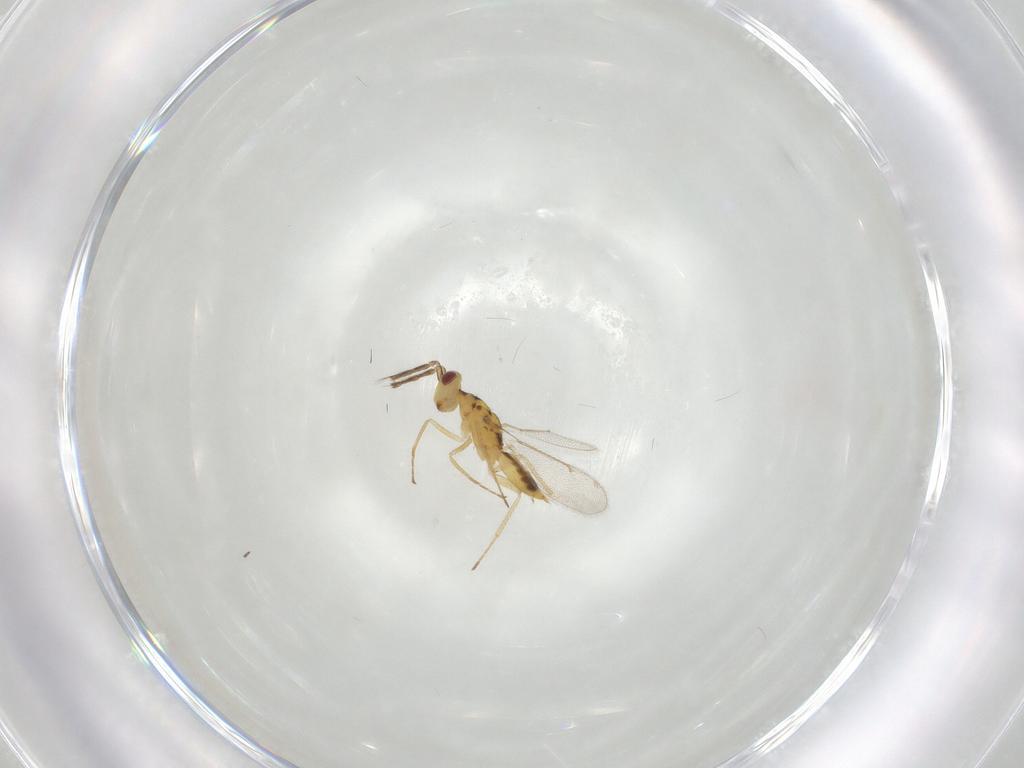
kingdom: Animalia
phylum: Arthropoda
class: Insecta
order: Hymenoptera
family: Eulophidae
